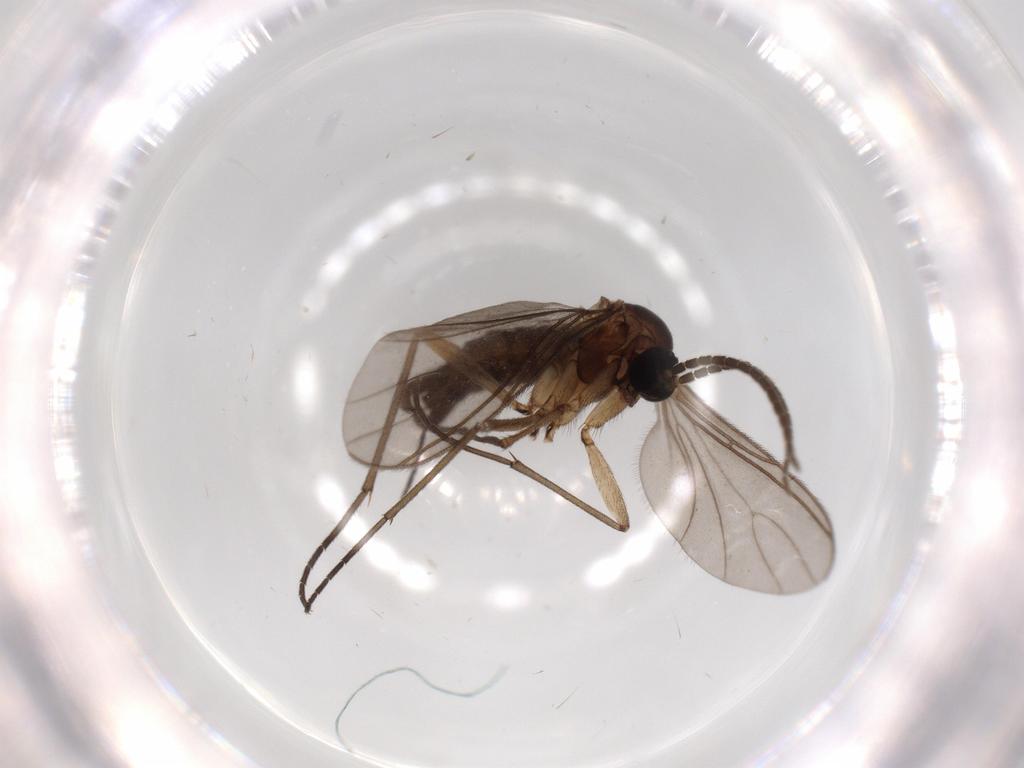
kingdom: Animalia
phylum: Arthropoda
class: Insecta
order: Diptera
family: Sciaridae
